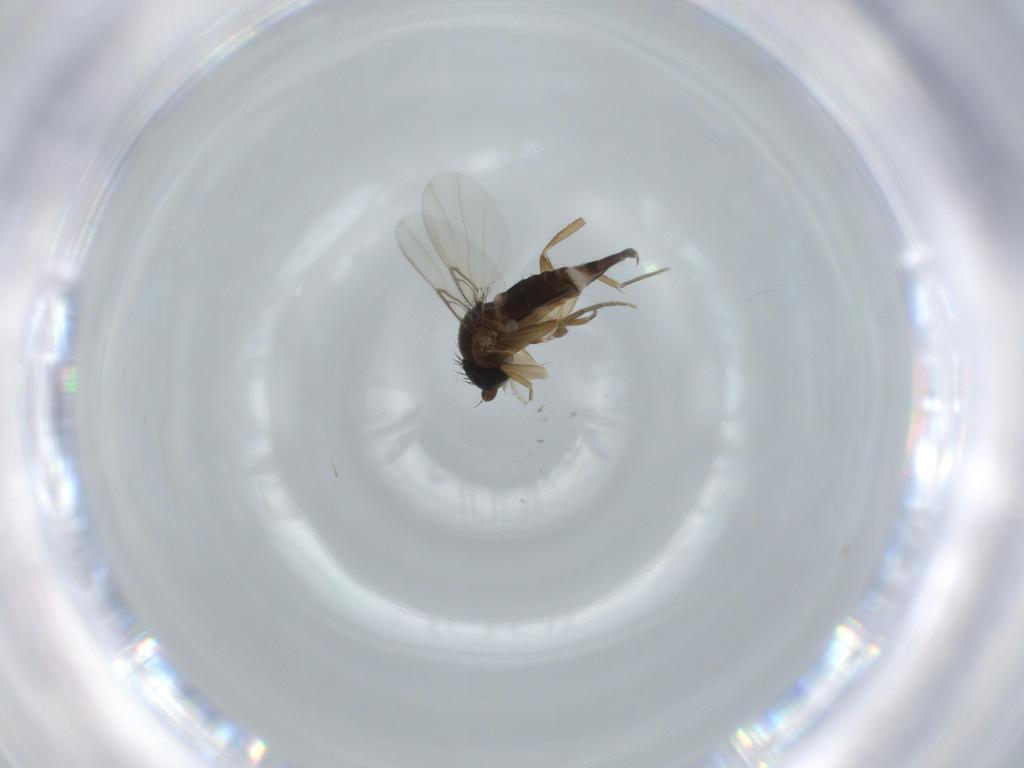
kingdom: Animalia
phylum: Arthropoda
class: Insecta
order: Diptera
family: Phoridae
